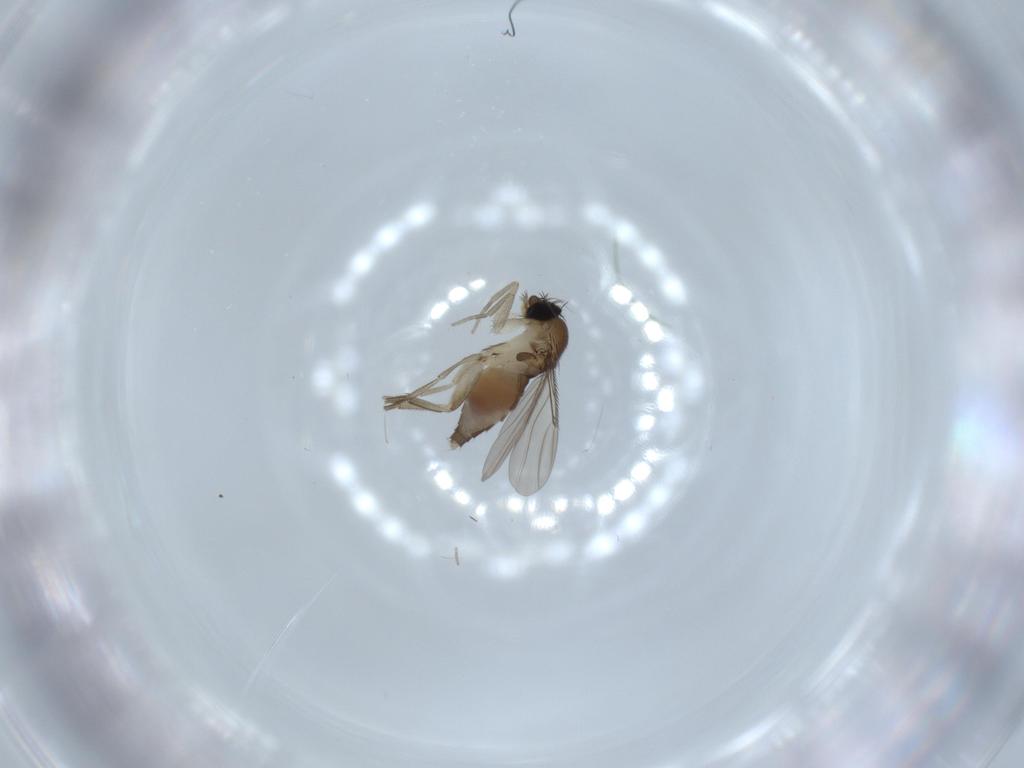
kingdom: Animalia
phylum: Arthropoda
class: Insecta
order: Diptera
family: Phoridae
